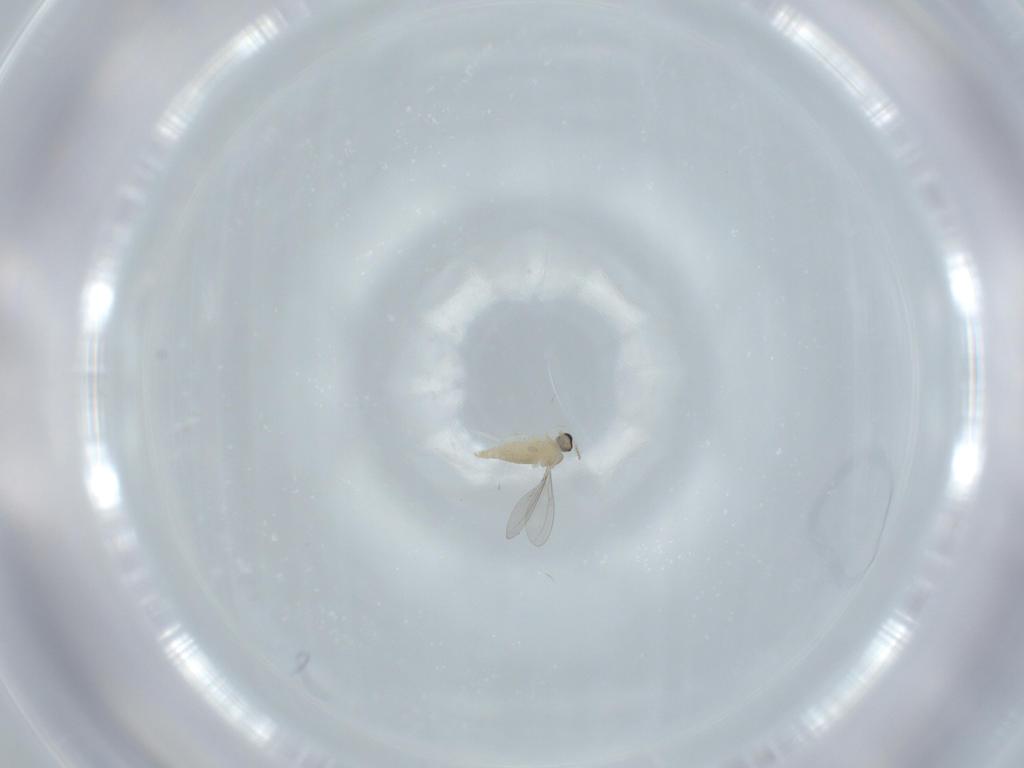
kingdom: Animalia
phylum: Arthropoda
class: Insecta
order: Diptera
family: Cecidomyiidae
